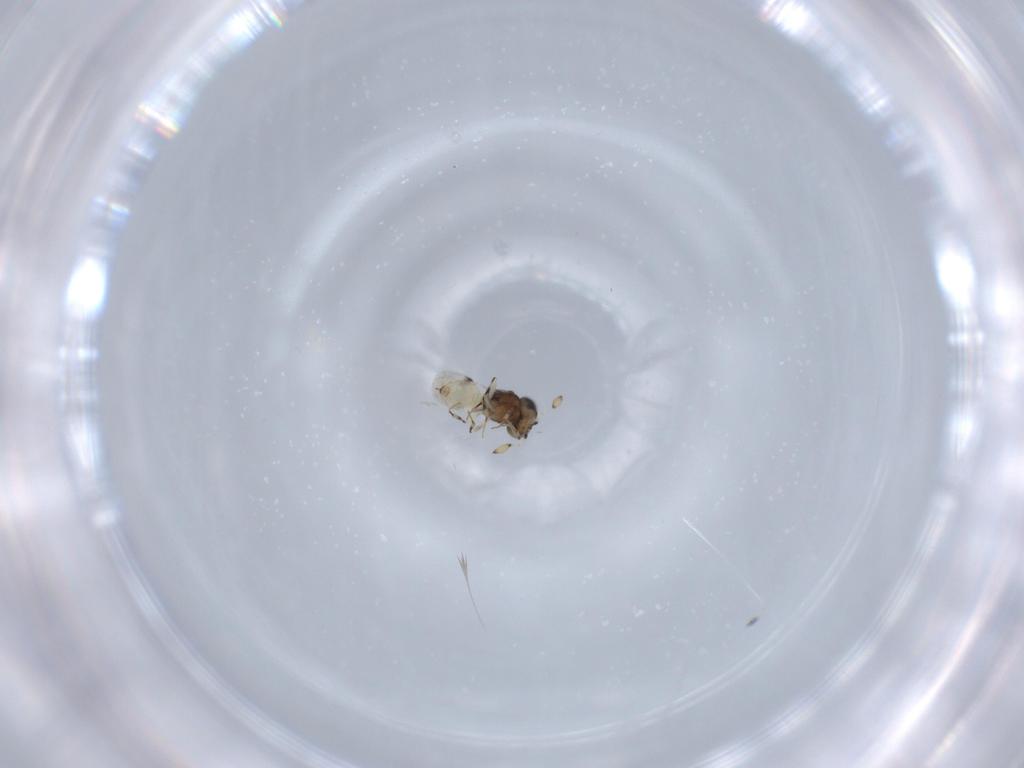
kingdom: Animalia
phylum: Arthropoda
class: Insecta
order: Hymenoptera
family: Scelionidae
